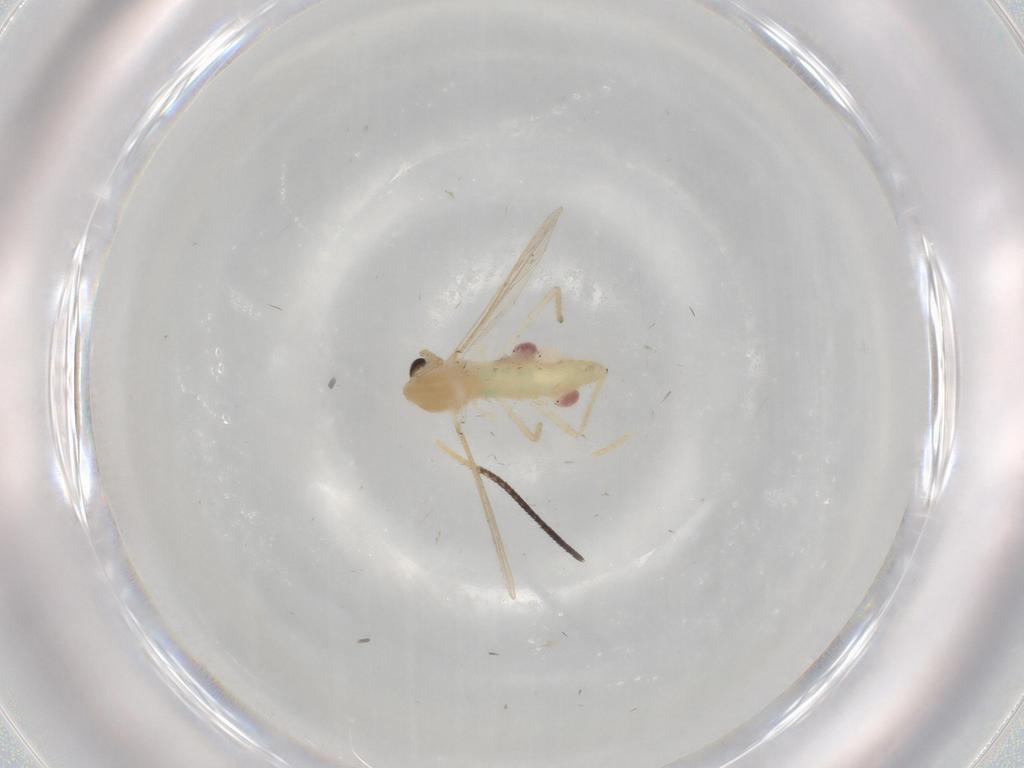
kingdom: Animalia
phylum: Arthropoda
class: Insecta
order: Diptera
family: Chironomidae
